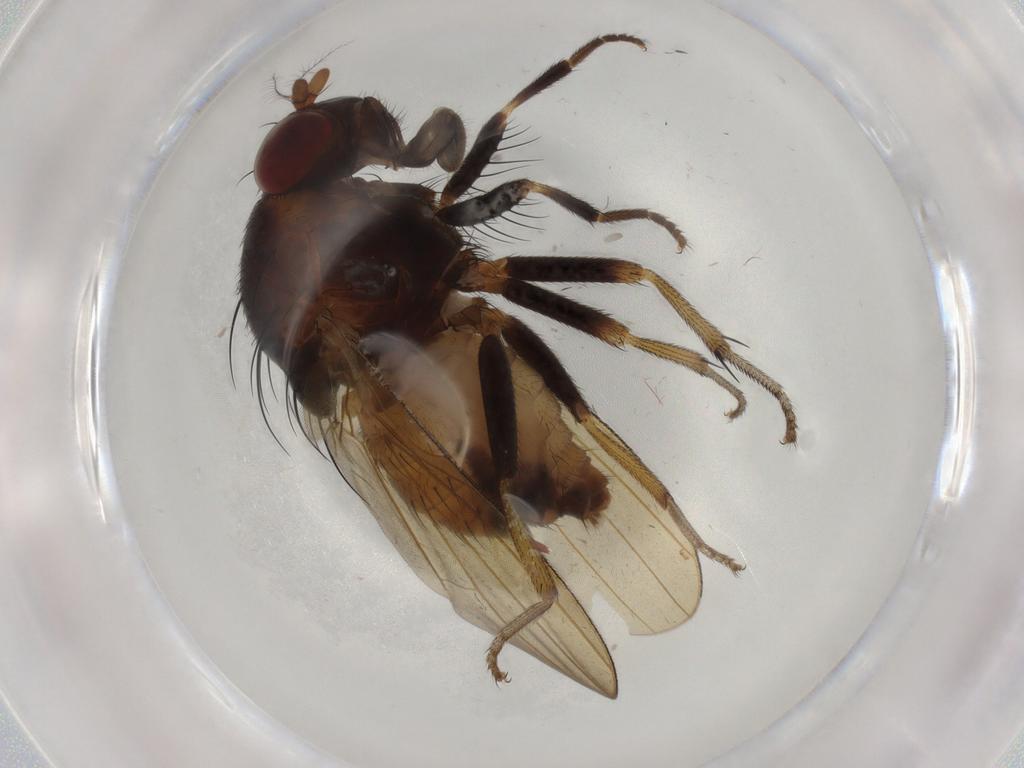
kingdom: Animalia
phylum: Arthropoda
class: Insecta
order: Diptera
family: Lauxaniidae
